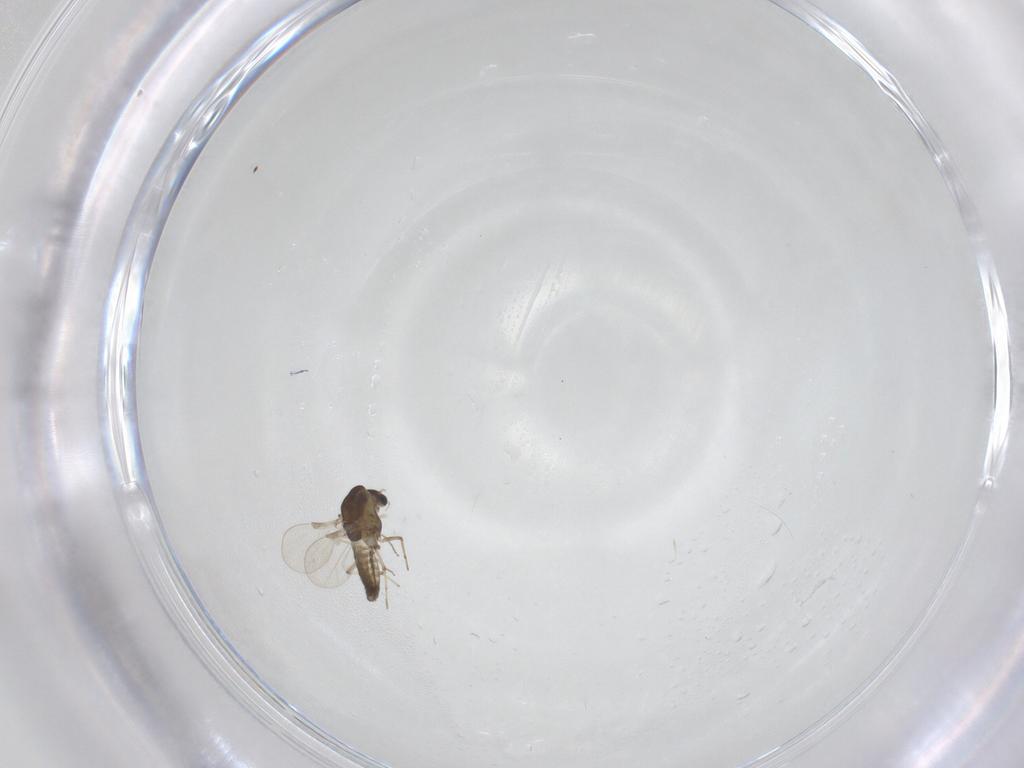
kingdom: Animalia
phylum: Arthropoda
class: Insecta
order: Diptera
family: Chironomidae
